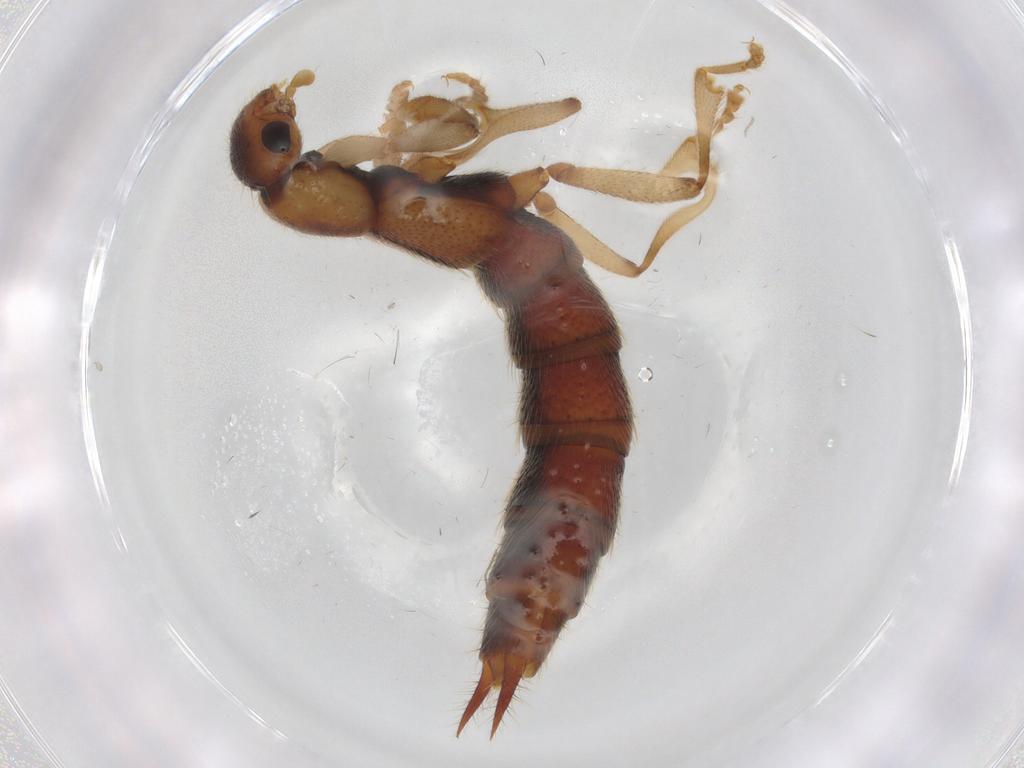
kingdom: Animalia
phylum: Arthropoda
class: Insecta
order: Coleoptera
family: Staphylinidae
